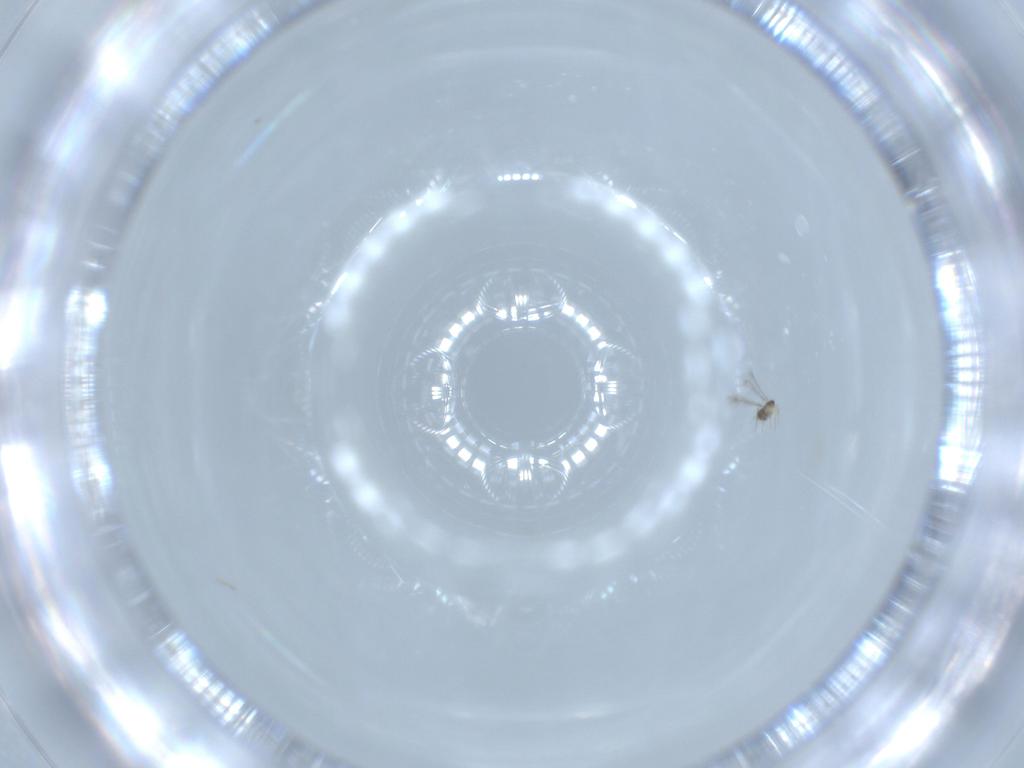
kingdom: Animalia
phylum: Arthropoda
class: Insecta
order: Hymenoptera
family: Mymaridae
